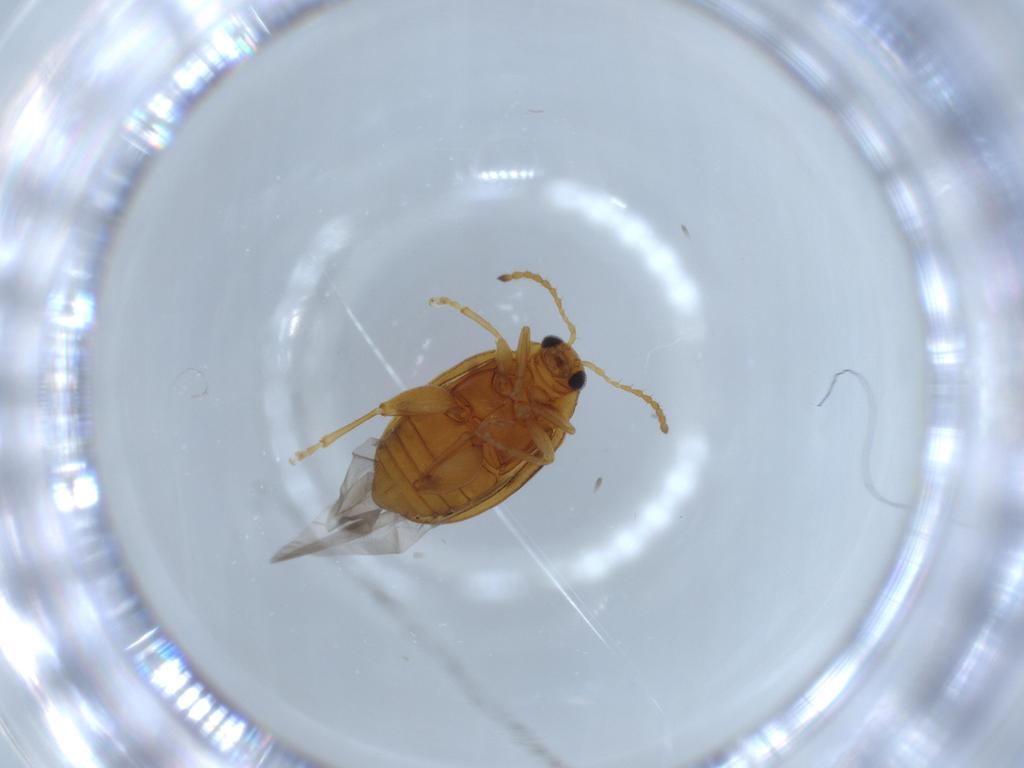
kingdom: Animalia
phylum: Arthropoda
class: Insecta
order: Coleoptera
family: Chrysomelidae
